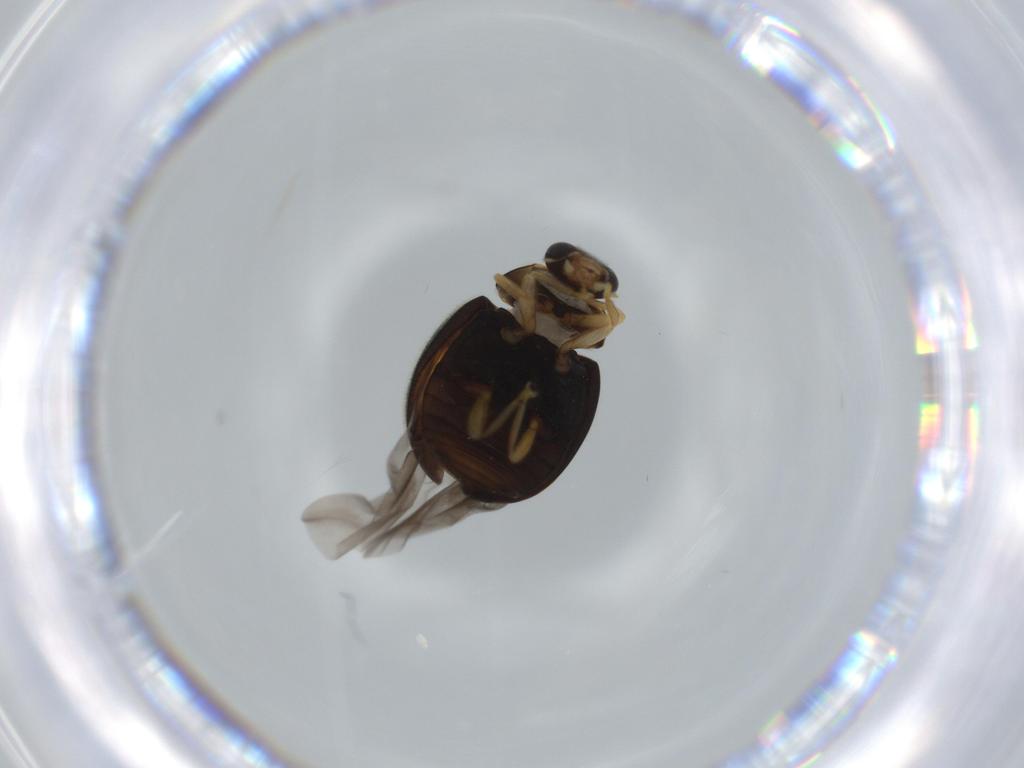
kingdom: Animalia
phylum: Arthropoda
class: Insecta
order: Coleoptera
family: Coccinellidae
